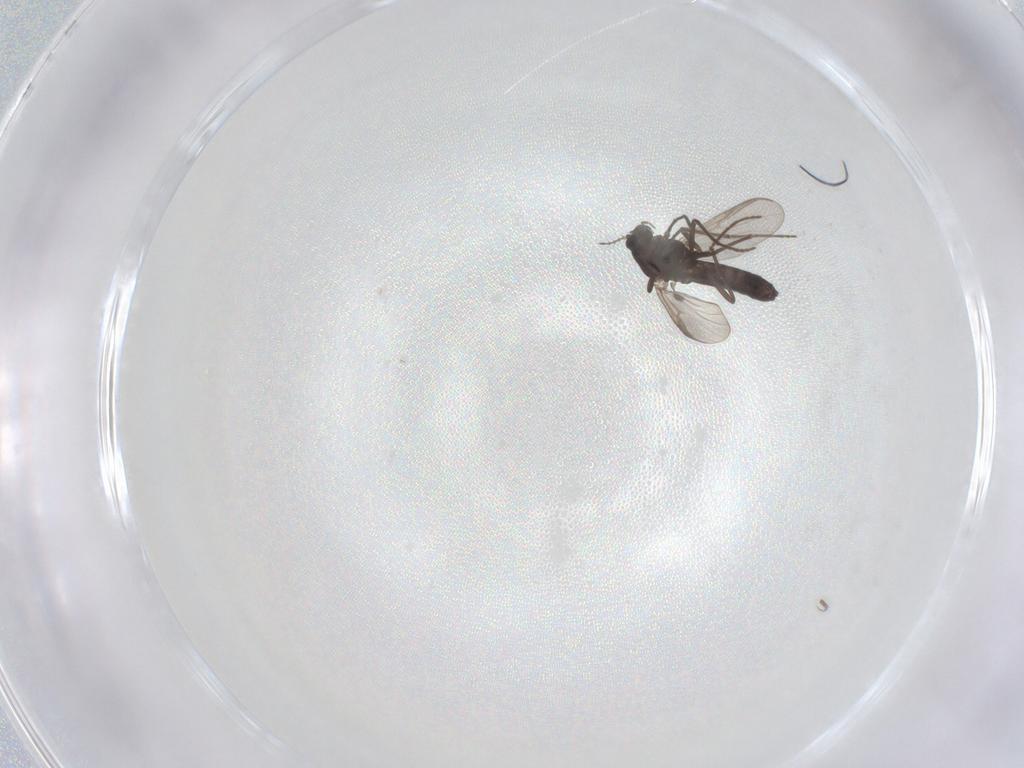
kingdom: Animalia
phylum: Arthropoda
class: Insecta
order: Diptera
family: Chironomidae
